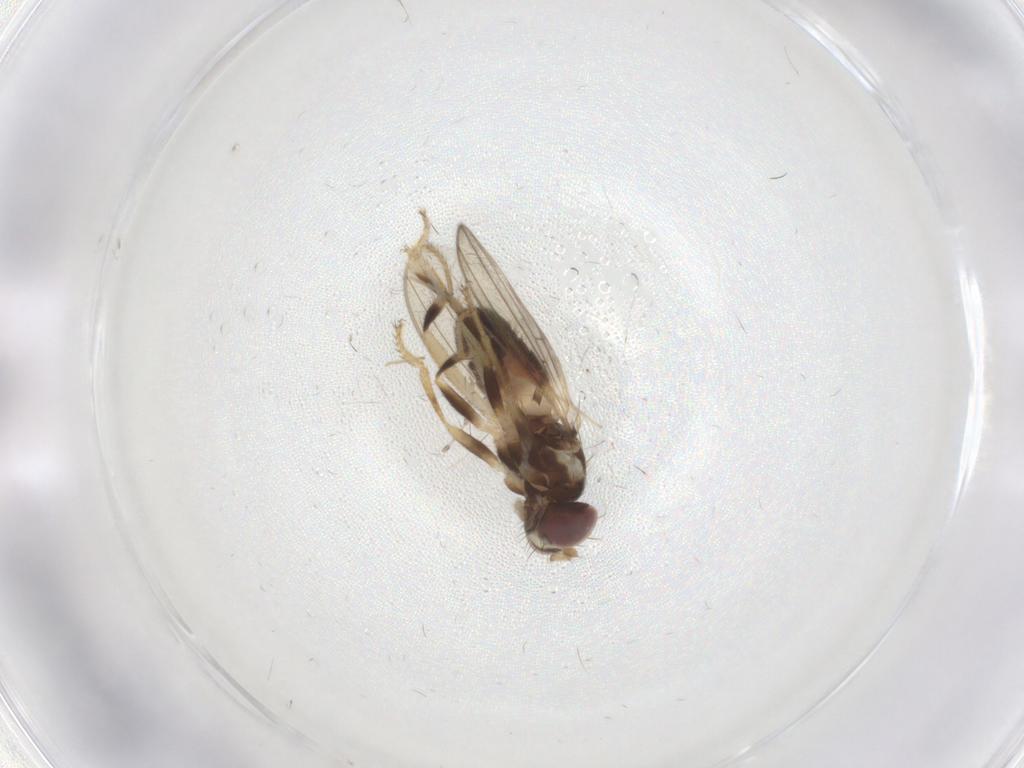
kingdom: Animalia
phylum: Arthropoda
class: Insecta
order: Diptera
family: Periscelididae
